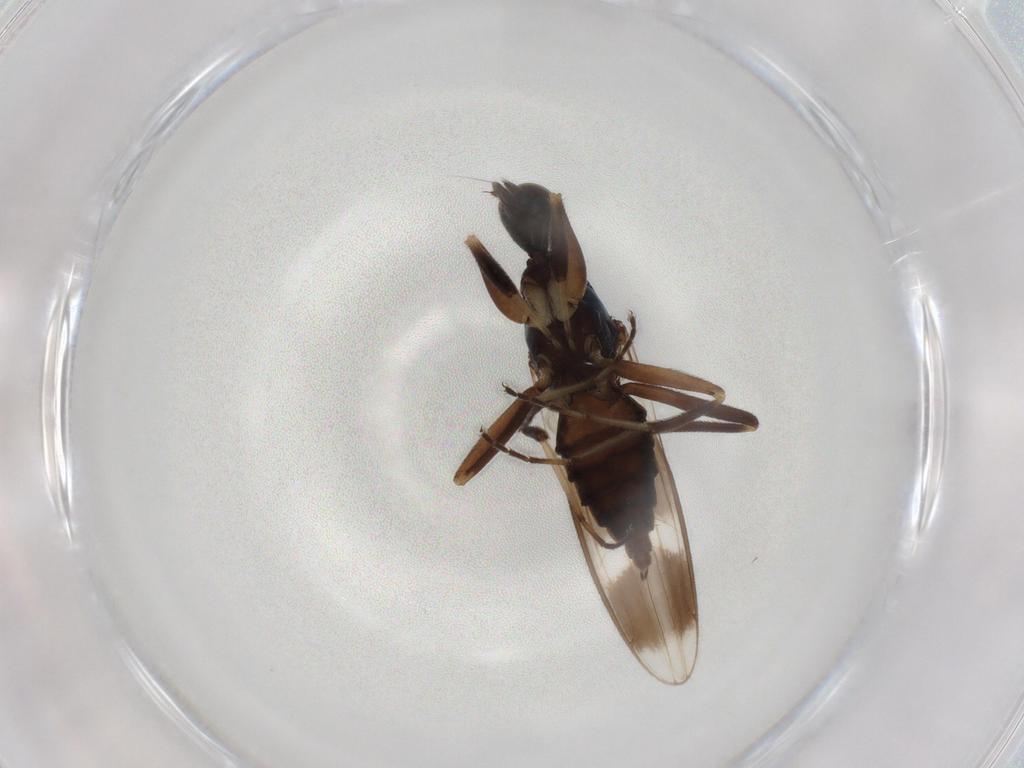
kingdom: Animalia
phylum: Arthropoda
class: Insecta
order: Diptera
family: Hybotidae
